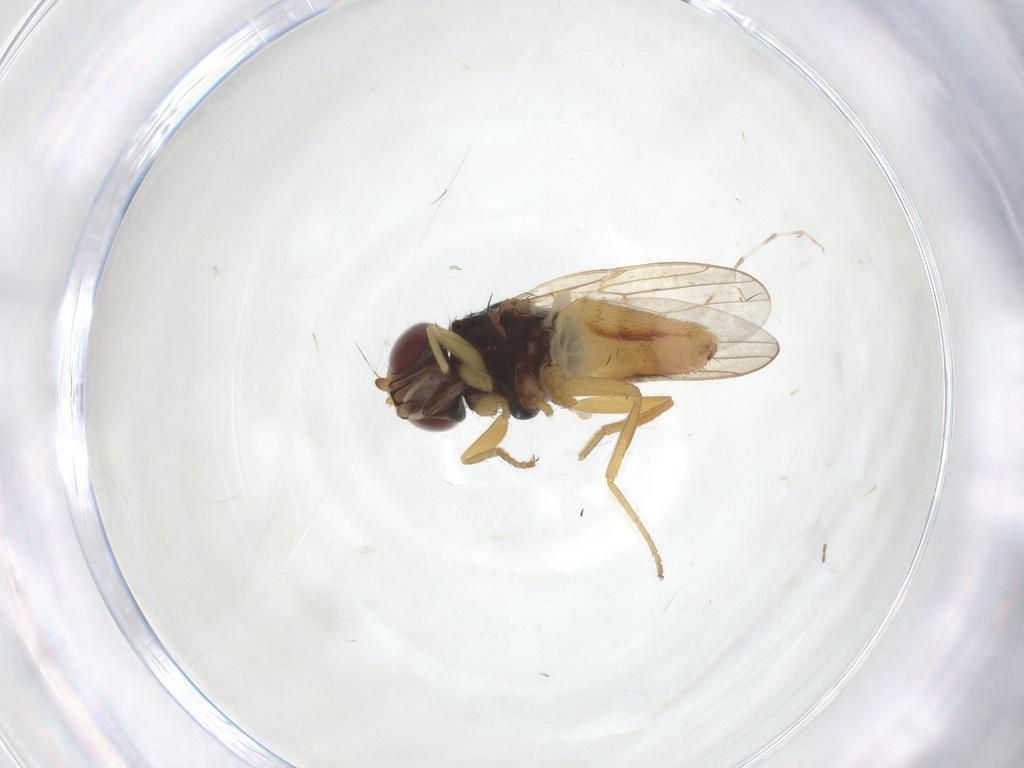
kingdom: Animalia
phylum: Arthropoda
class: Insecta
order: Diptera
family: Chloropidae
